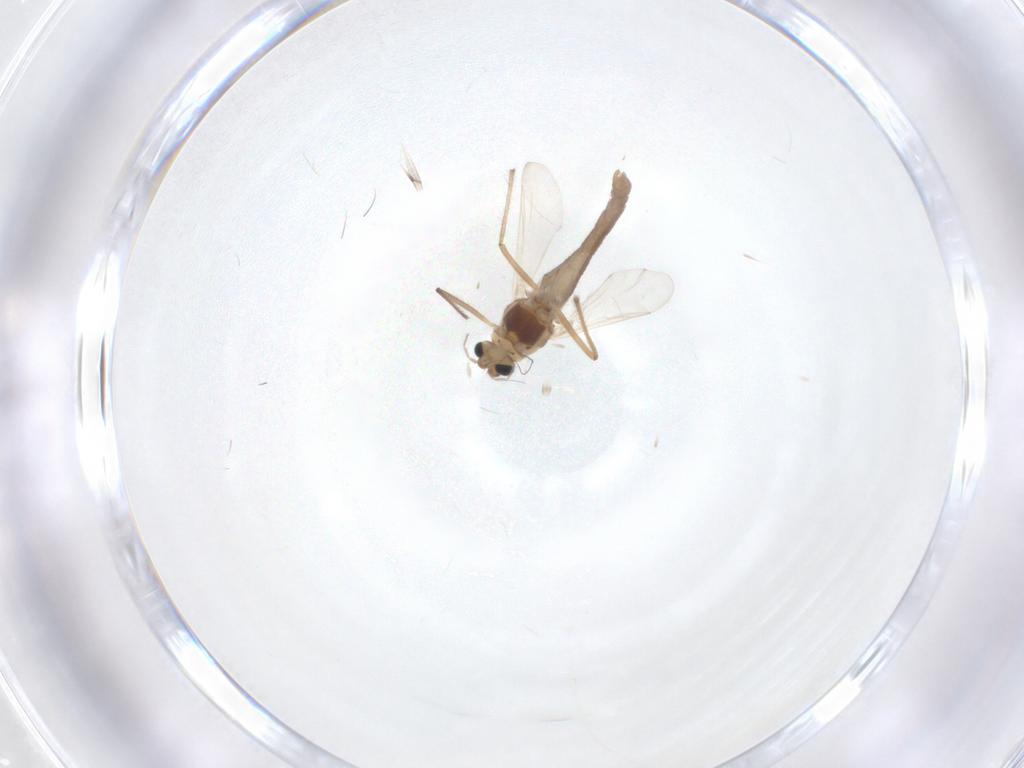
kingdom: Animalia
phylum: Arthropoda
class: Insecta
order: Diptera
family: Chironomidae
